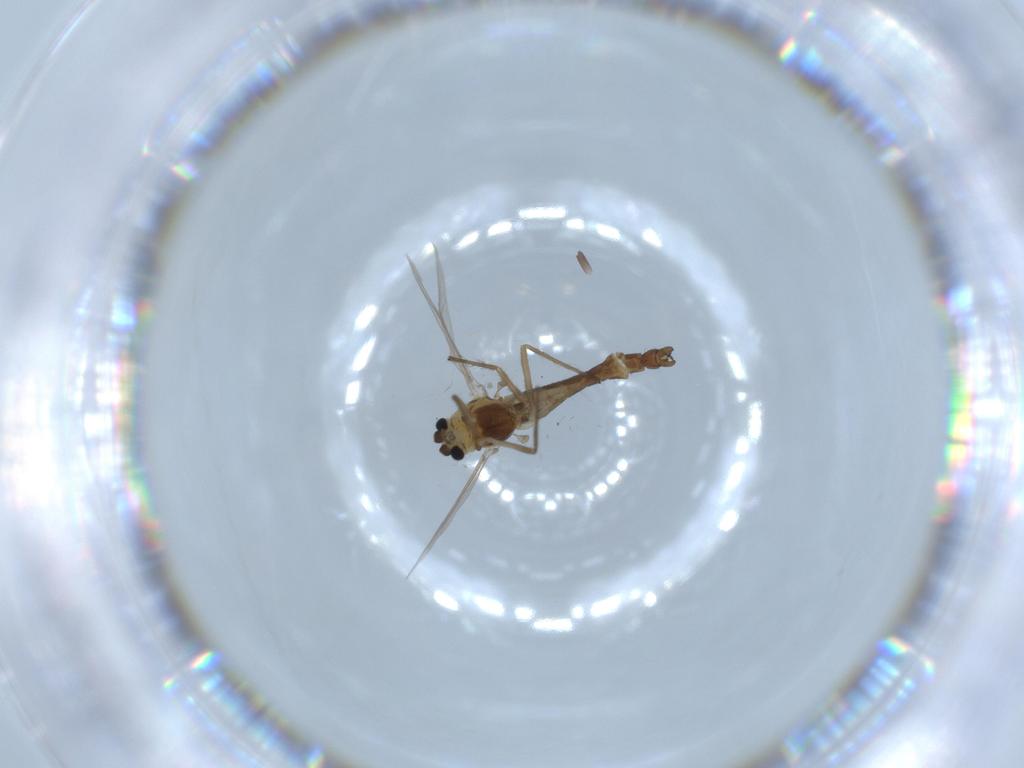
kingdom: Animalia
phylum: Arthropoda
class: Insecta
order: Diptera
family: Chironomidae
